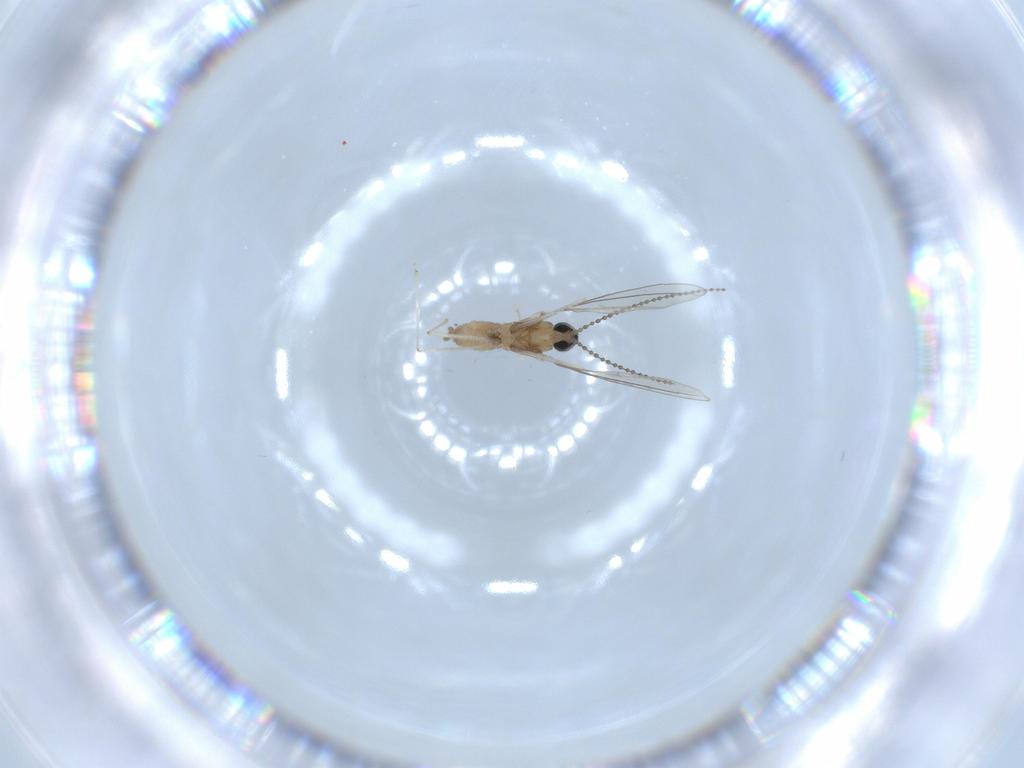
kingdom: Animalia
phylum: Arthropoda
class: Insecta
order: Diptera
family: Cecidomyiidae
